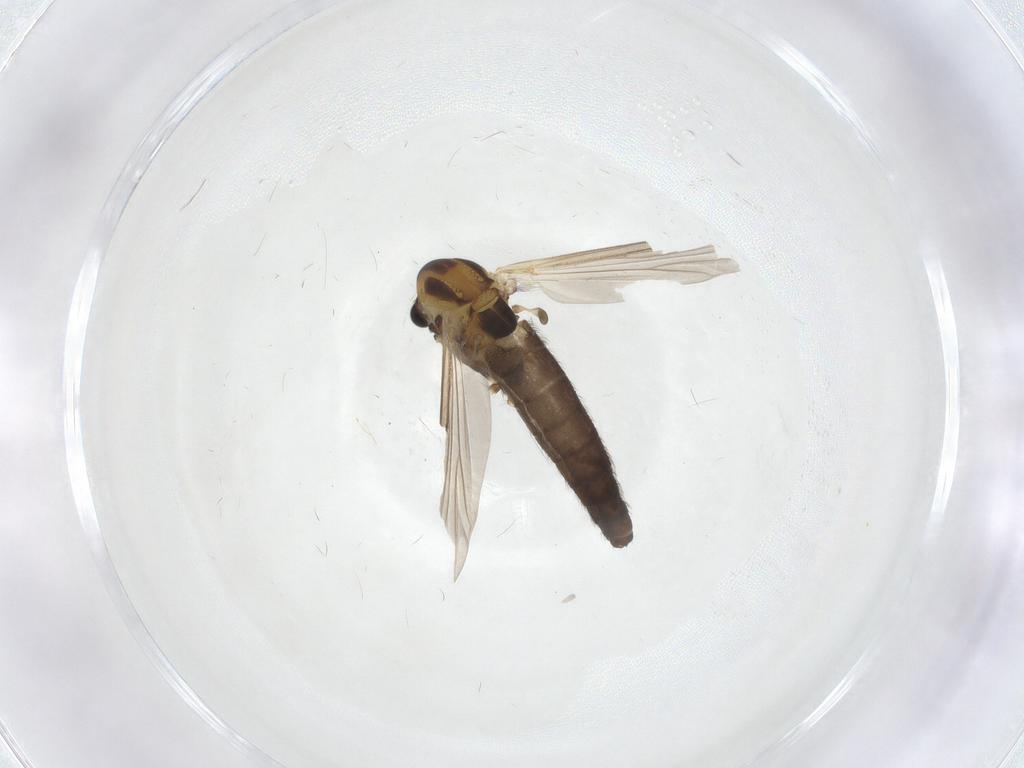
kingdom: Animalia
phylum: Arthropoda
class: Insecta
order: Diptera
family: Chironomidae
